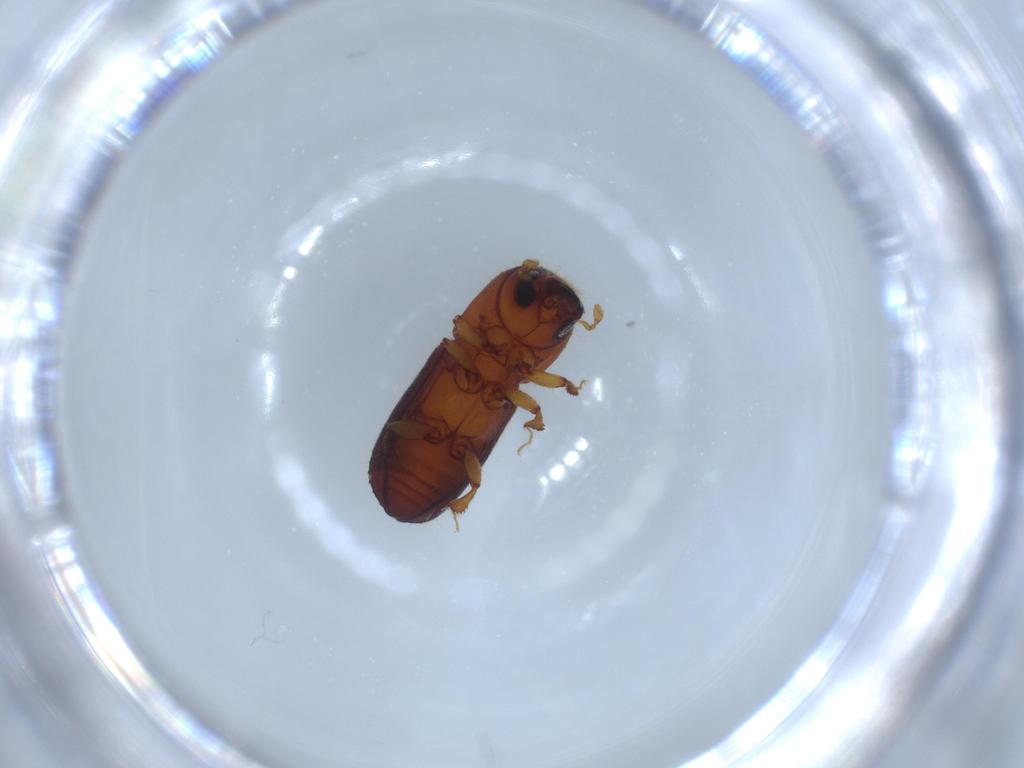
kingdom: Animalia
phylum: Arthropoda
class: Insecta
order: Coleoptera
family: Curculionidae
